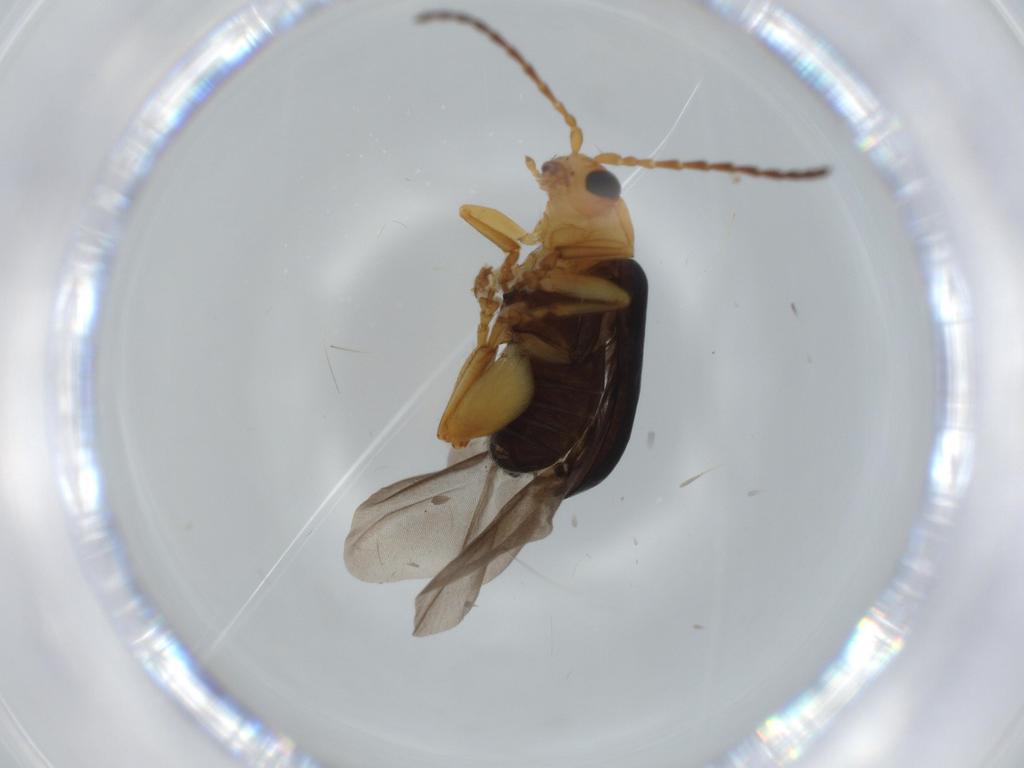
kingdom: Animalia
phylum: Arthropoda
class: Insecta
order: Coleoptera
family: Chrysomelidae
